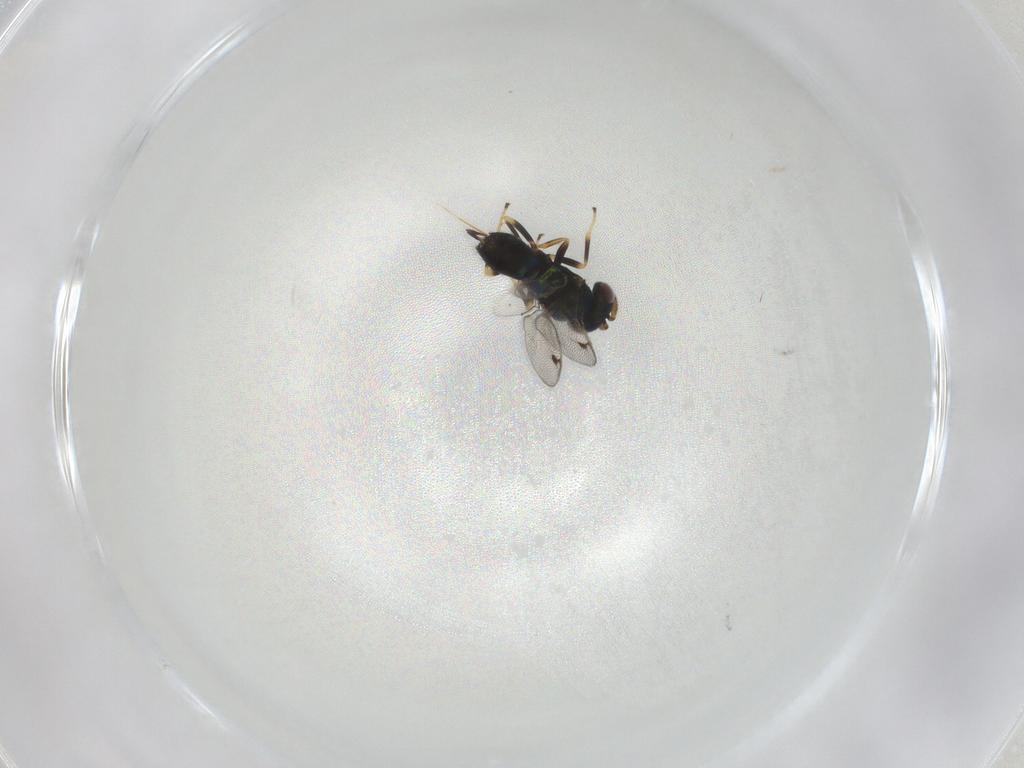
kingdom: Animalia
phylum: Arthropoda
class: Insecta
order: Hymenoptera
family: Pirenidae
